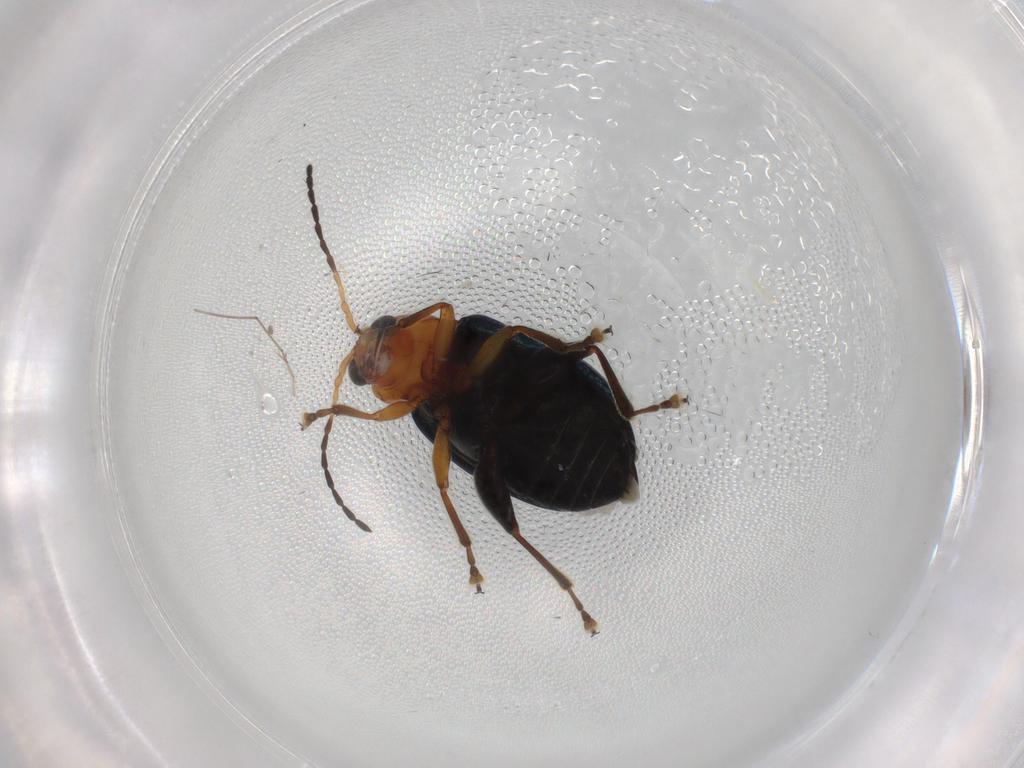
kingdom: Animalia
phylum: Arthropoda
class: Insecta
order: Coleoptera
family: Chrysomelidae
